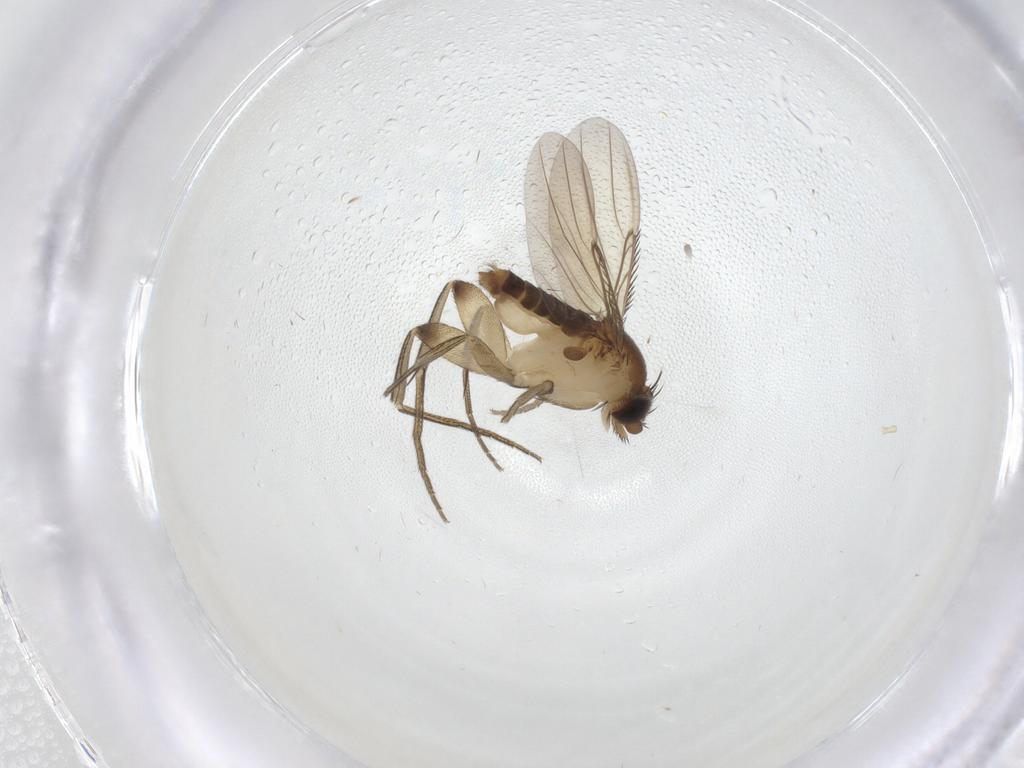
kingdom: Animalia
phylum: Arthropoda
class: Insecta
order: Diptera
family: Phoridae
